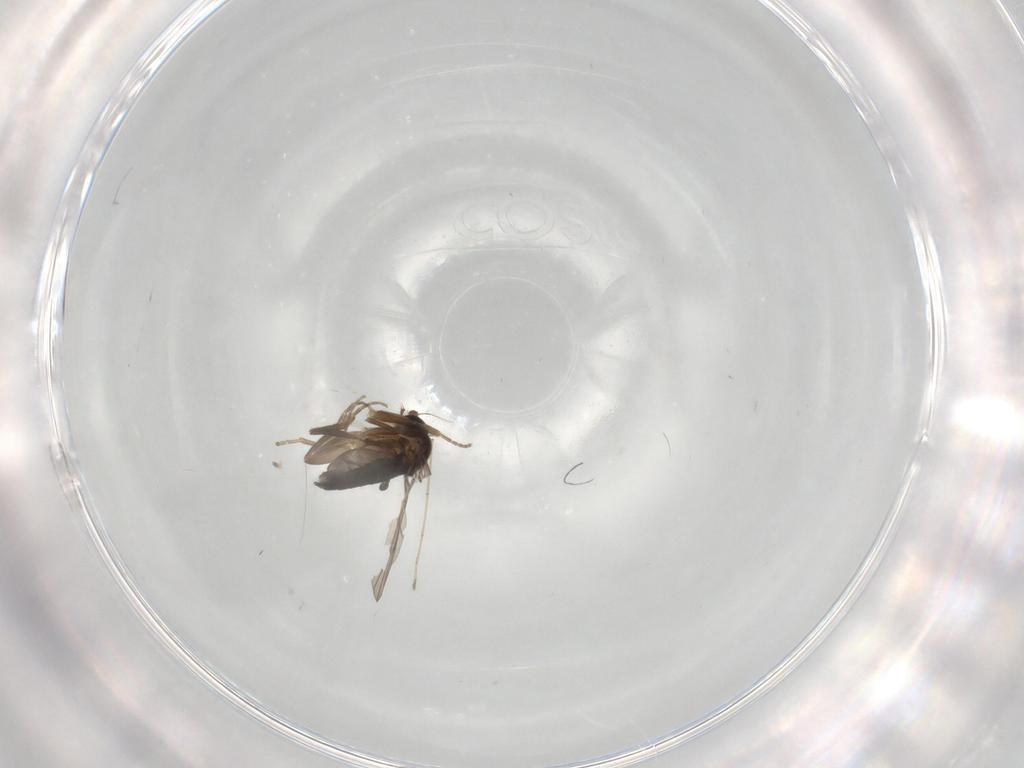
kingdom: Animalia
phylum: Arthropoda
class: Insecta
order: Diptera
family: Chironomidae
